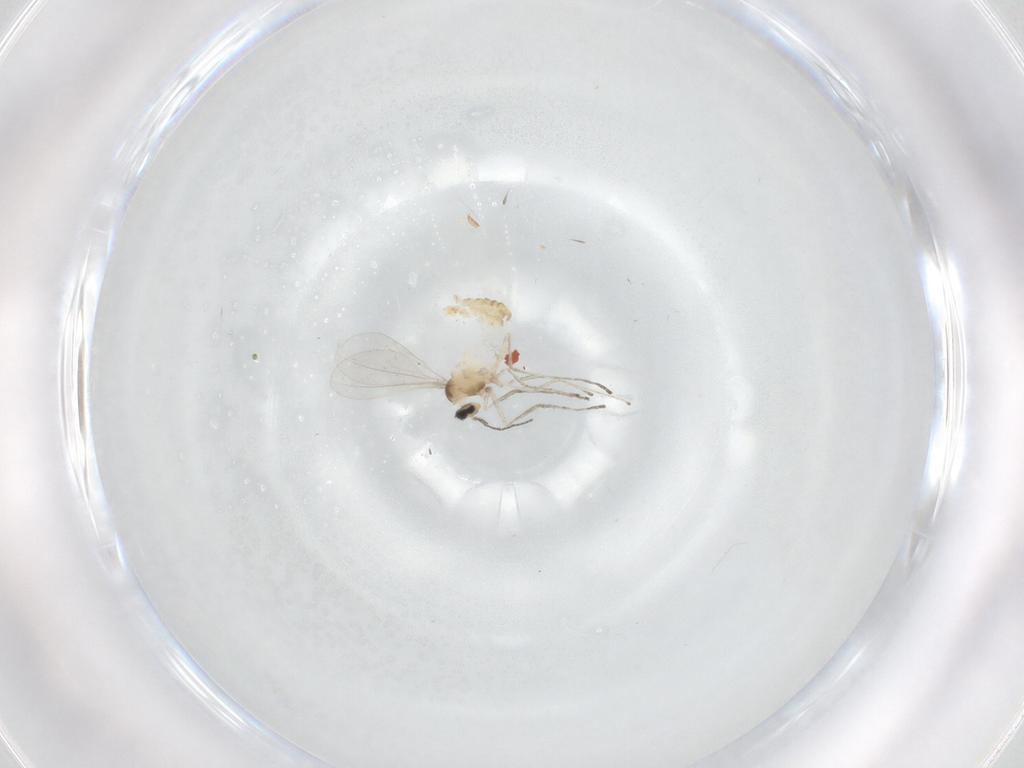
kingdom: Animalia
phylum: Arthropoda
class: Insecta
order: Diptera
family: Cecidomyiidae
